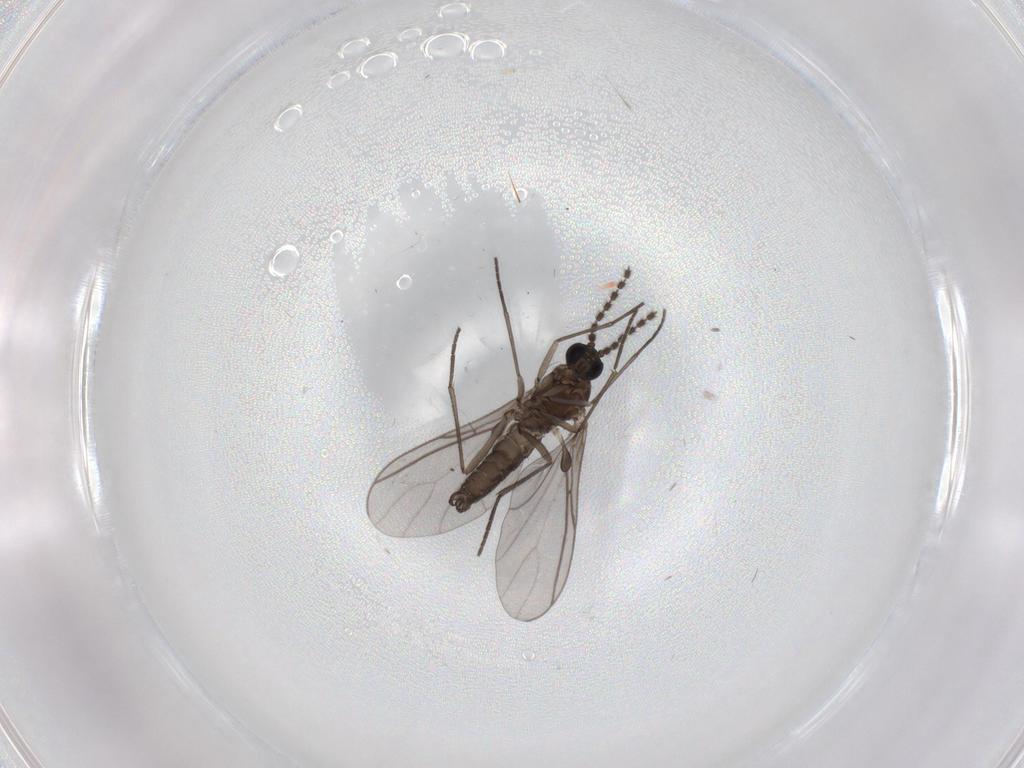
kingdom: Animalia
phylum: Arthropoda
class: Insecta
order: Diptera
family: Sciaridae
